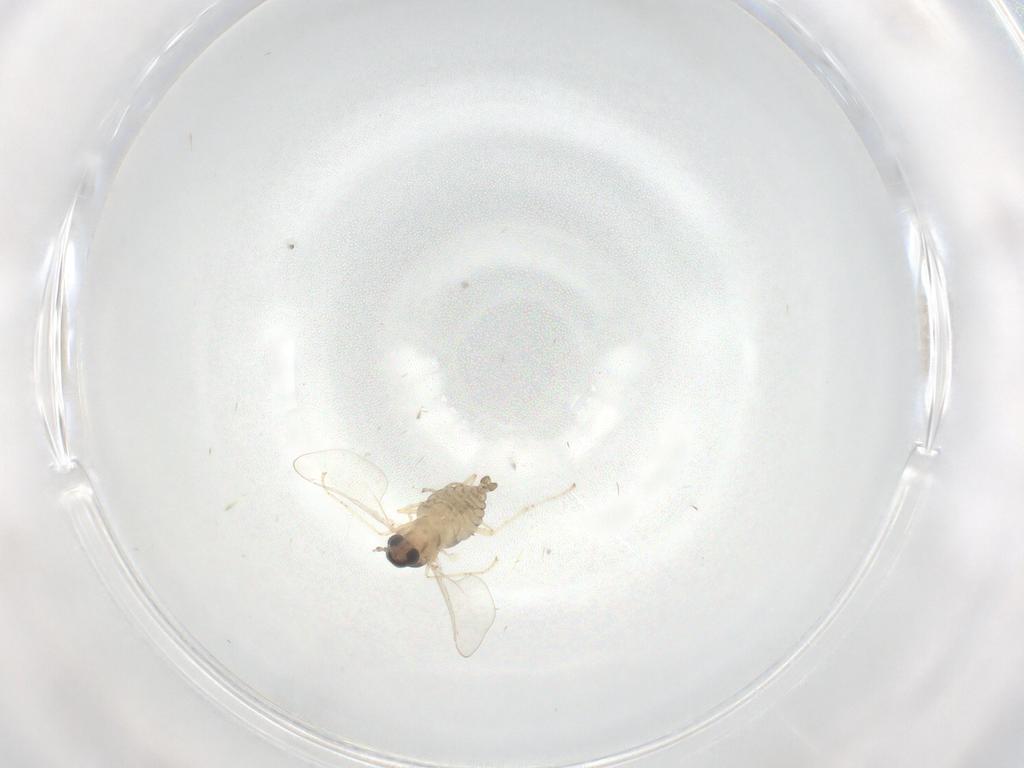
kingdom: Animalia
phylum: Arthropoda
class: Insecta
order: Diptera
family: Cecidomyiidae
